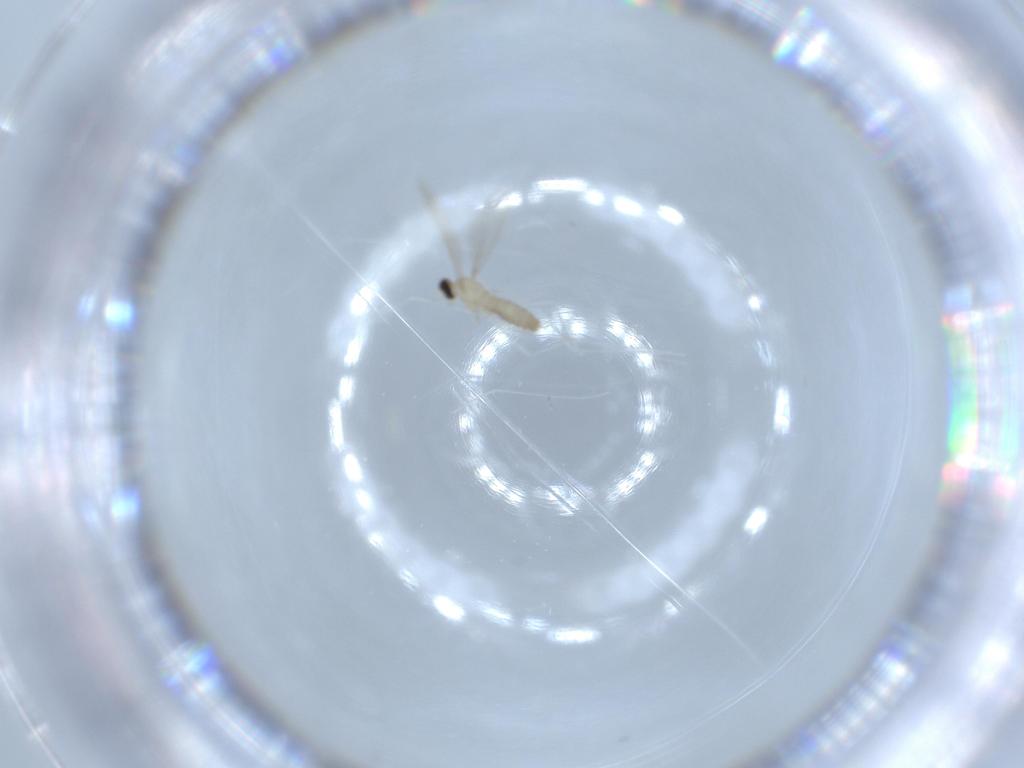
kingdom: Animalia
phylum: Arthropoda
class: Insecta
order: Diptera
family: Cecidomyiidae
